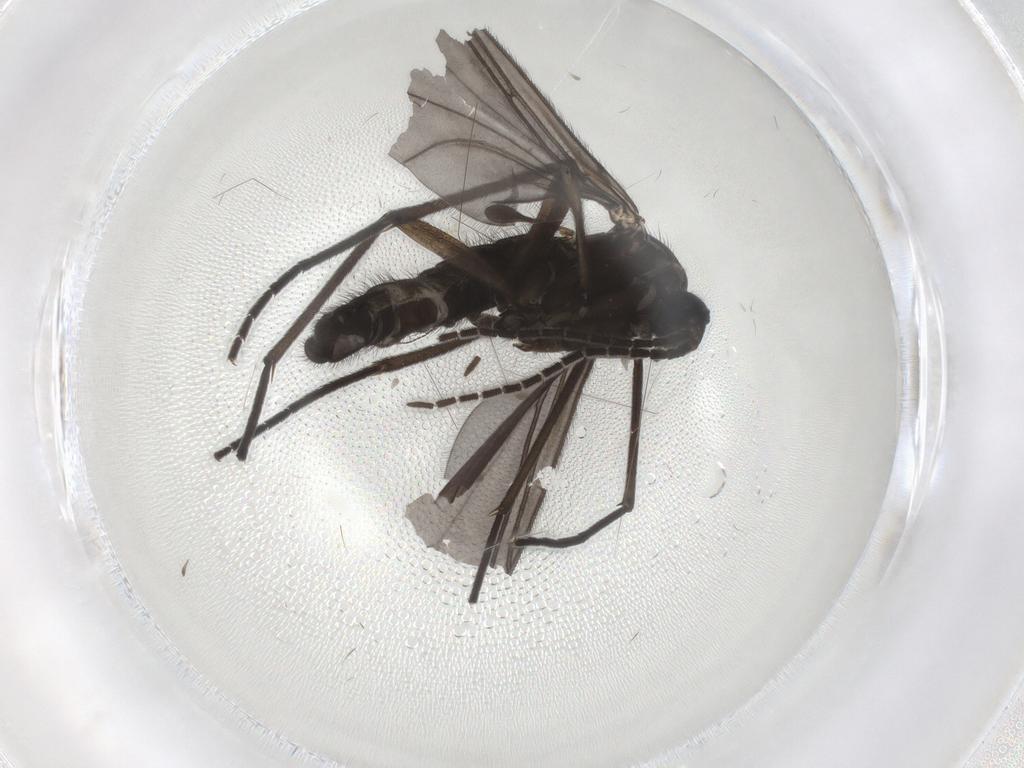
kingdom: Animalia
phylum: Arthropoda
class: Insecta
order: Diptera
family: Sciaridae
